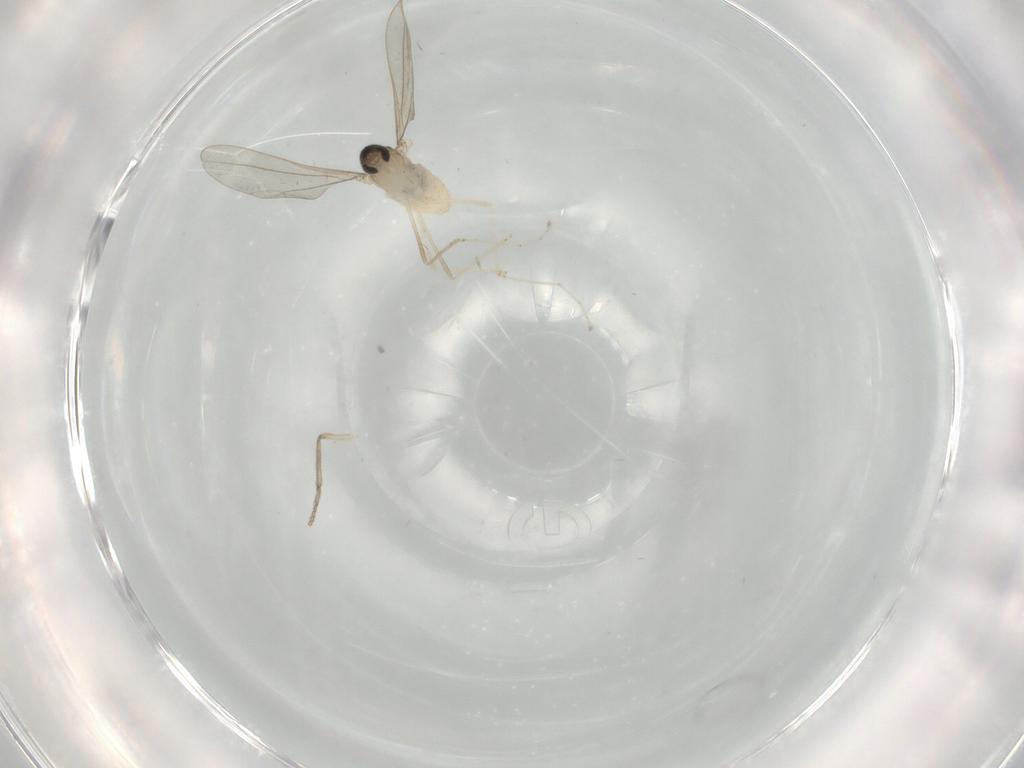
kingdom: Animalia
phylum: Arthropoda
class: Insecta
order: Diptera
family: Cecidomyiidae
